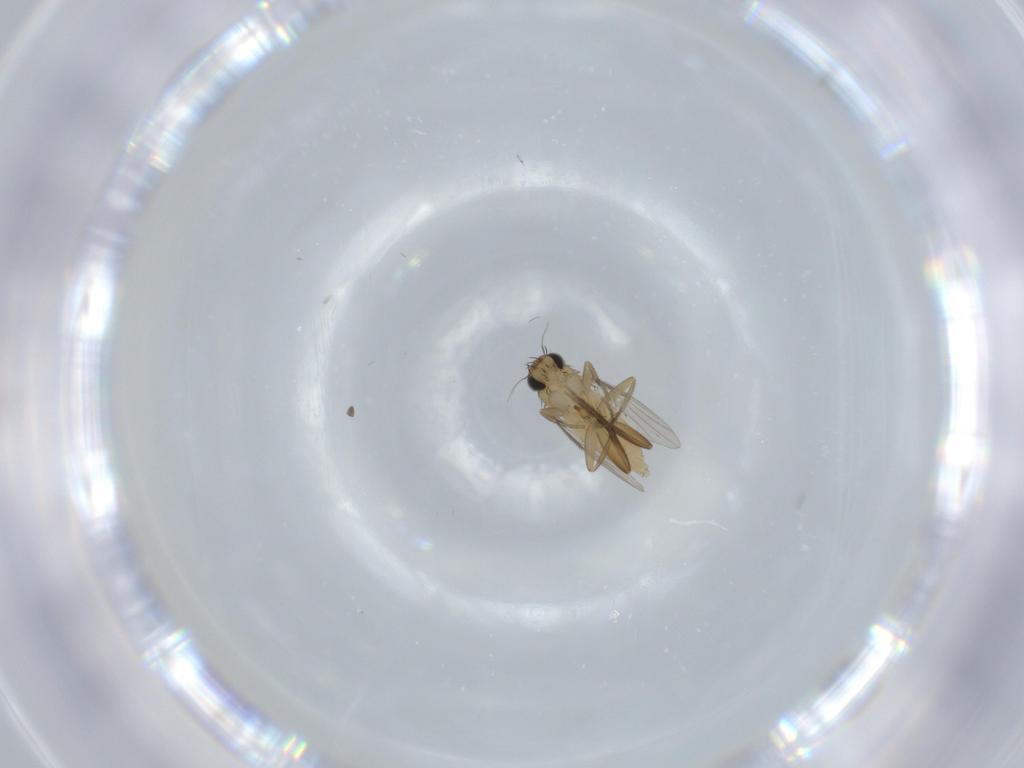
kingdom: Animalia
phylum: Arthropoda
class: Insecta
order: Diptera
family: Phoridae
